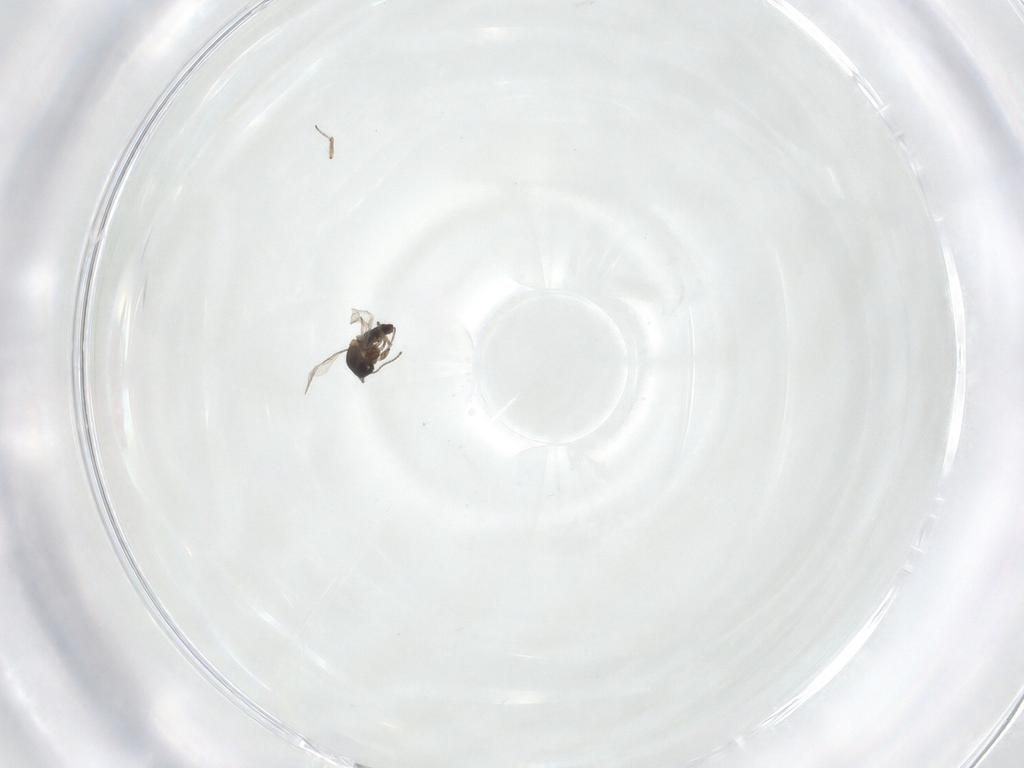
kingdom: Animalia
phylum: Arthropoda
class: Insecta
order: Diptera
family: Ceratopogonidae
